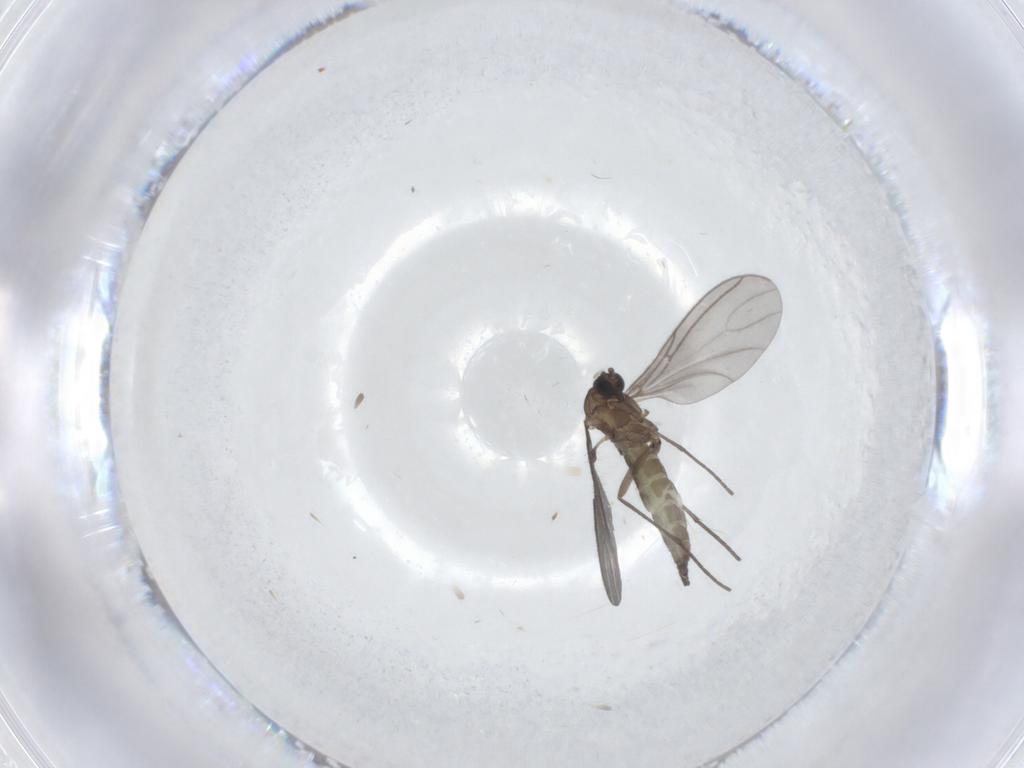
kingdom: Animalia
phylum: Arthropoda
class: Insecta
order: Diptera
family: Sciaridae
